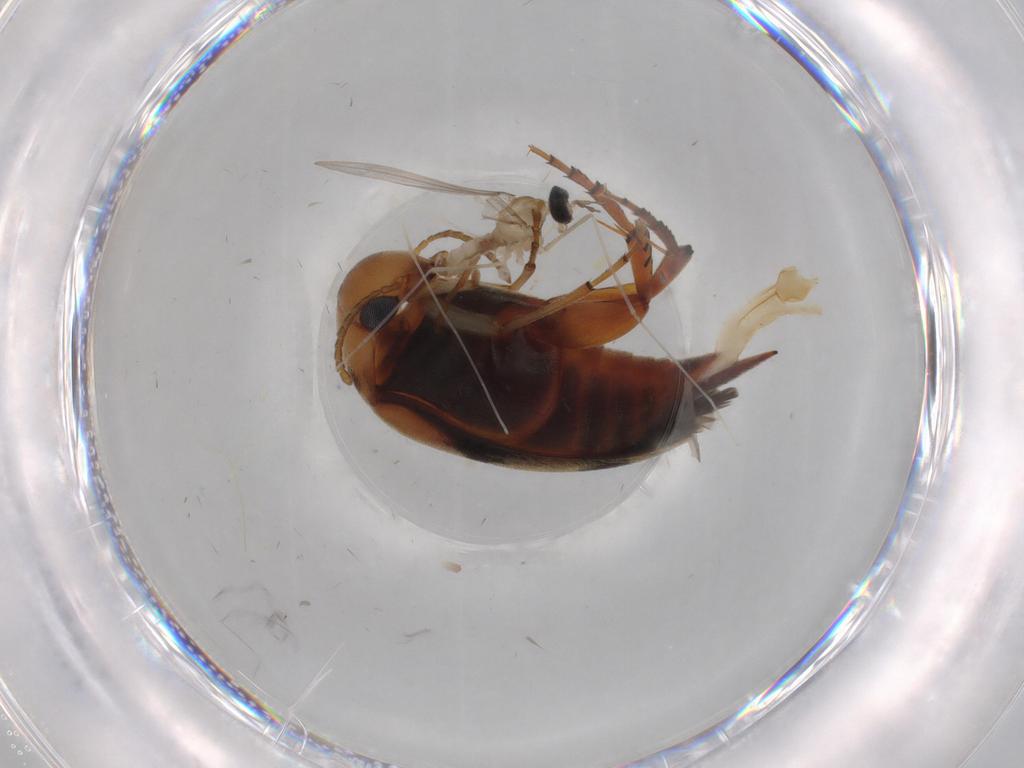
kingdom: Animalia
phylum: Arthropoda
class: Insecta
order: Coleoptera
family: Mordellidae
